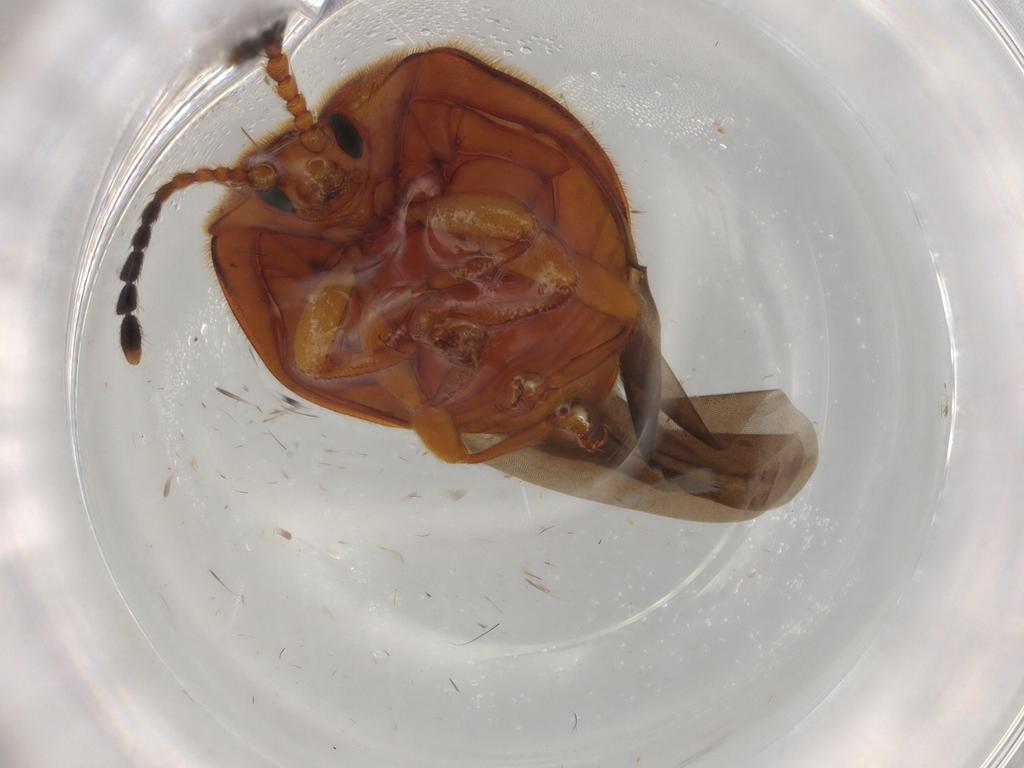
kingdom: Animalia
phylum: Arthropoda
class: Insecta
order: Coleoptera
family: Endomychidae
